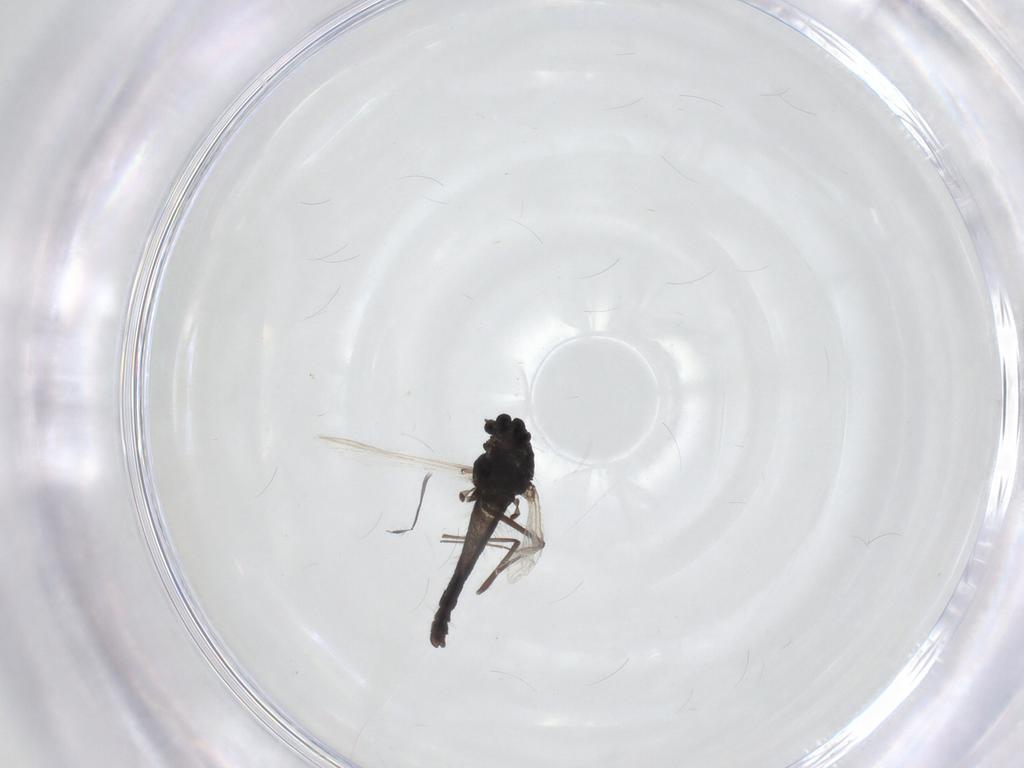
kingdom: Animalia
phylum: Arthropoda
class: Insecta
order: Diptera
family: Chironomidae
